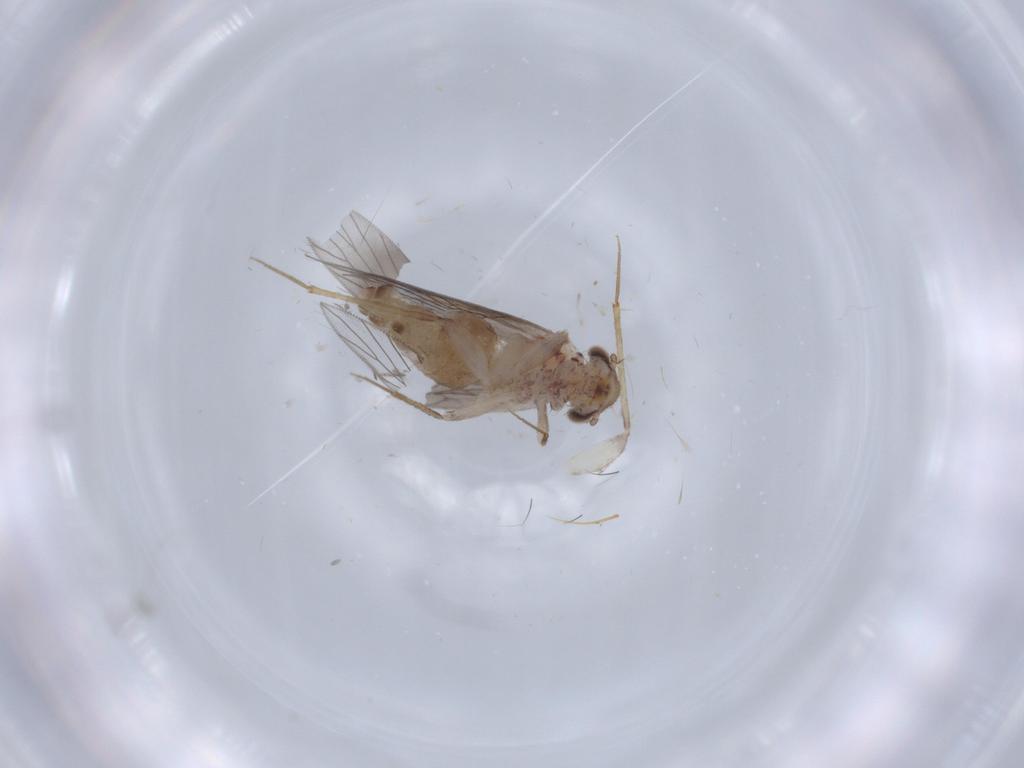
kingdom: Animalia
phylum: Arthropoda
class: Insecta
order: Psocodea
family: Lepidopsocidae
